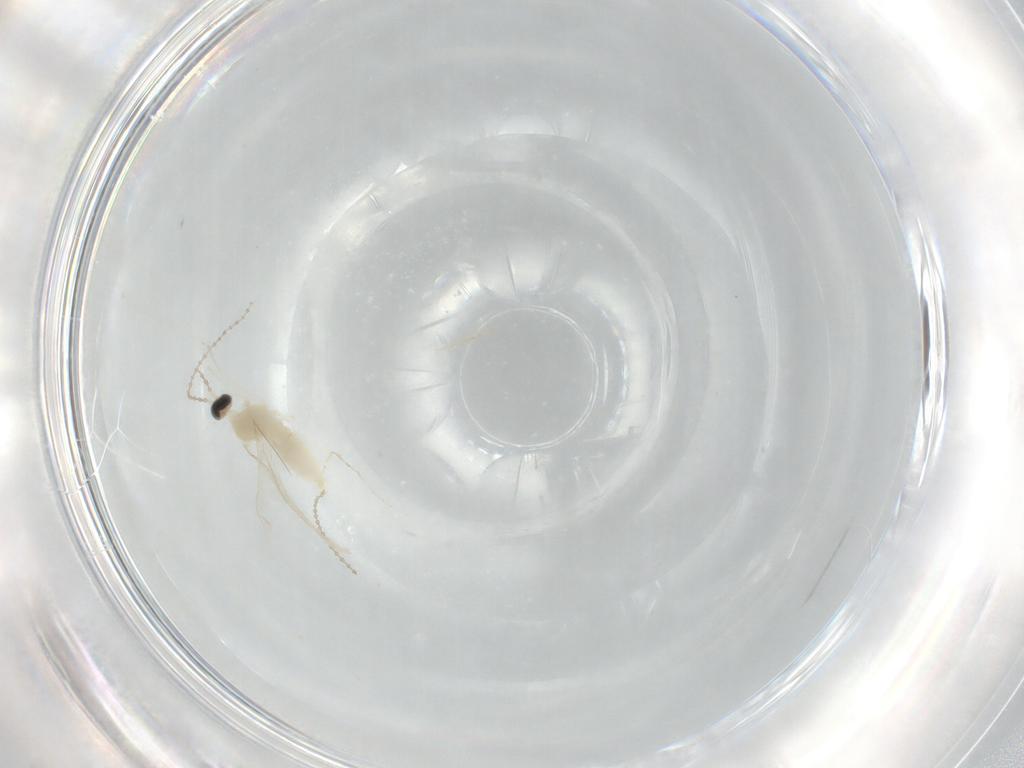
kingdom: Animalia
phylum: Arthropoda
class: Insecta
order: Diptera
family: Cecidomyiidae
